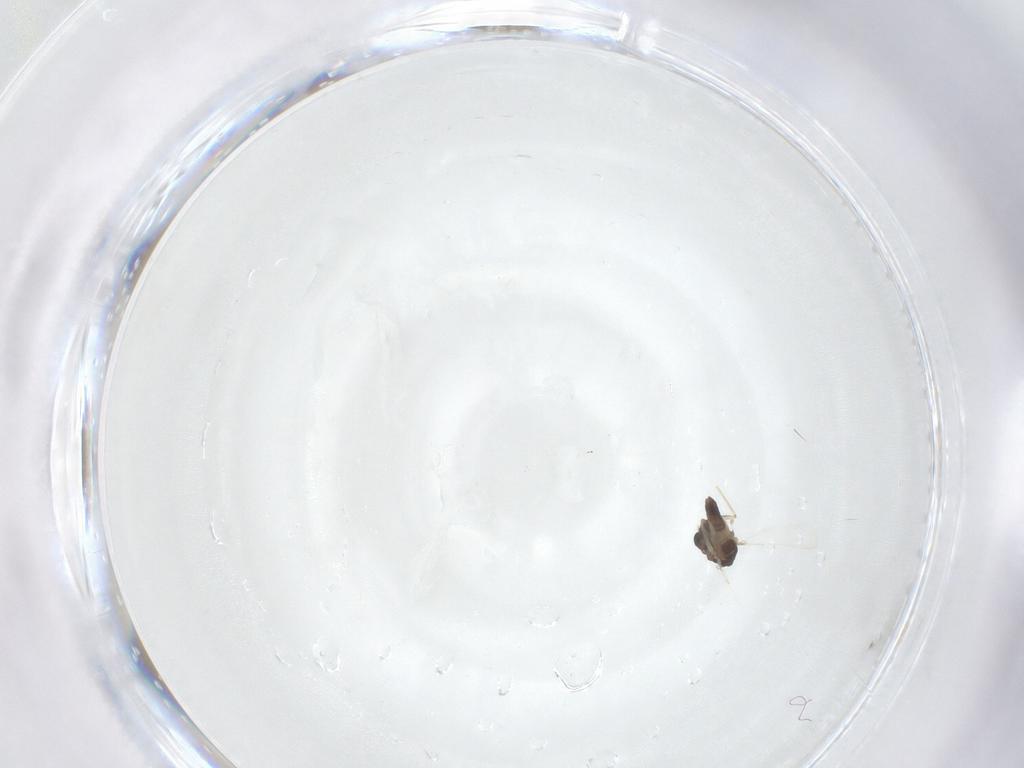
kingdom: Animalia
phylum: Arthropoda
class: Insecta
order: Diptera
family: Chironomidae
